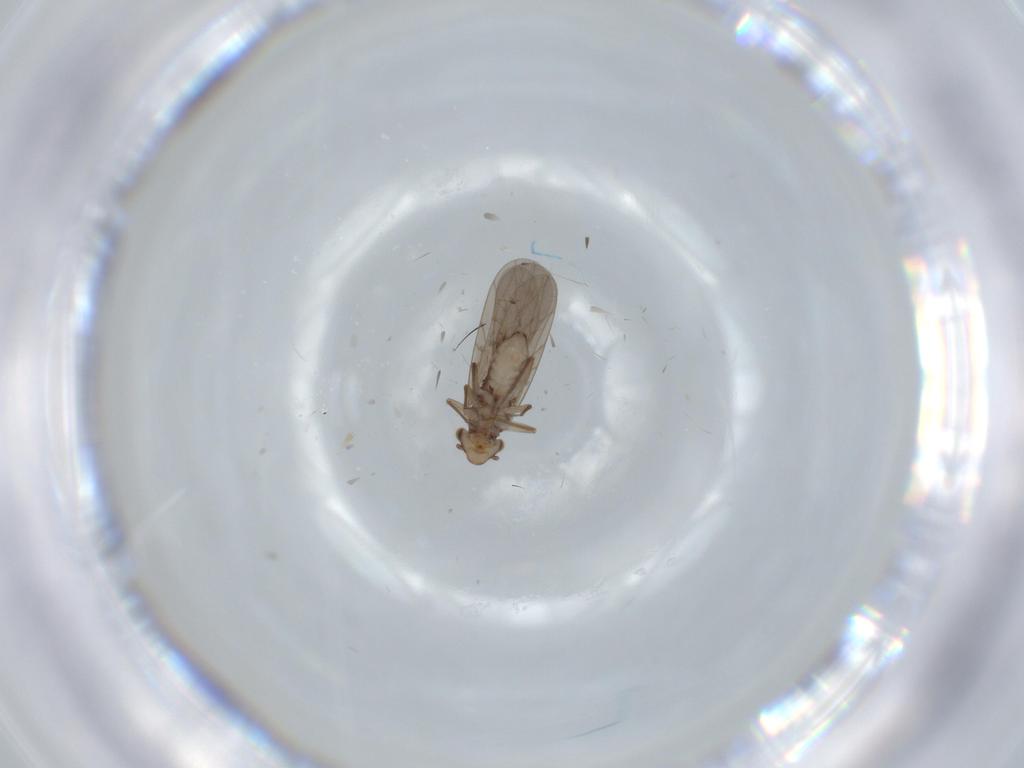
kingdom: Animalia
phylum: Arthropoda
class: Insecta
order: Psocodea
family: Lepidopsocidae
